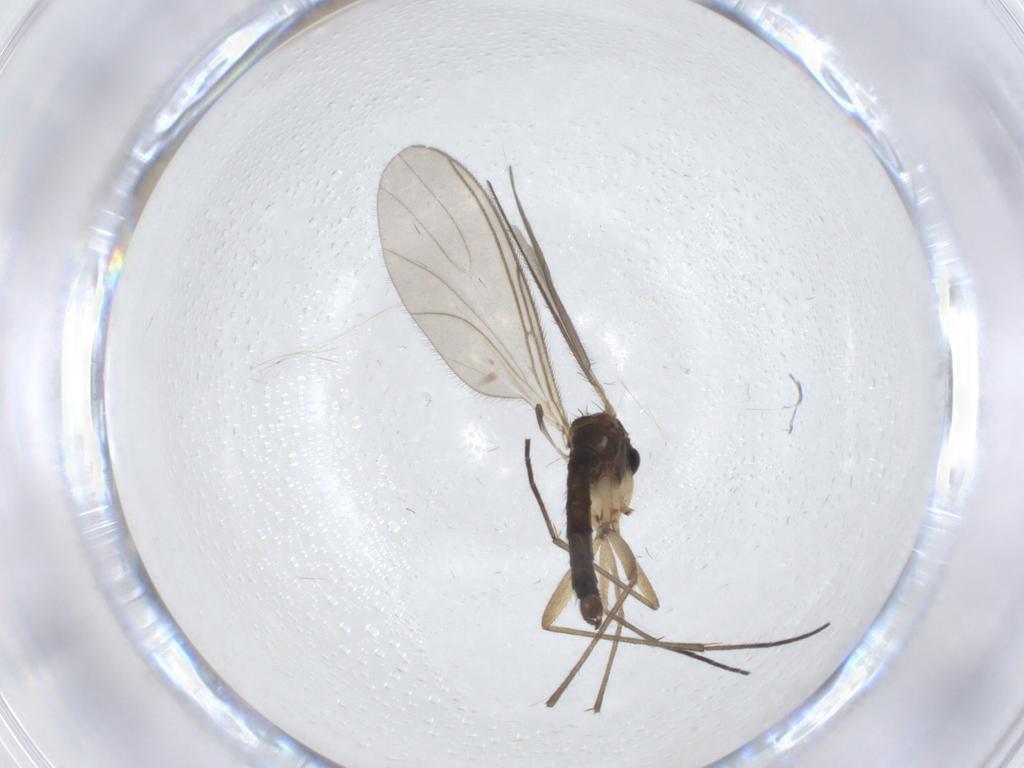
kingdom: Animalia
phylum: Arthropoda
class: Insecta
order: Diptera
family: Sciaridae
